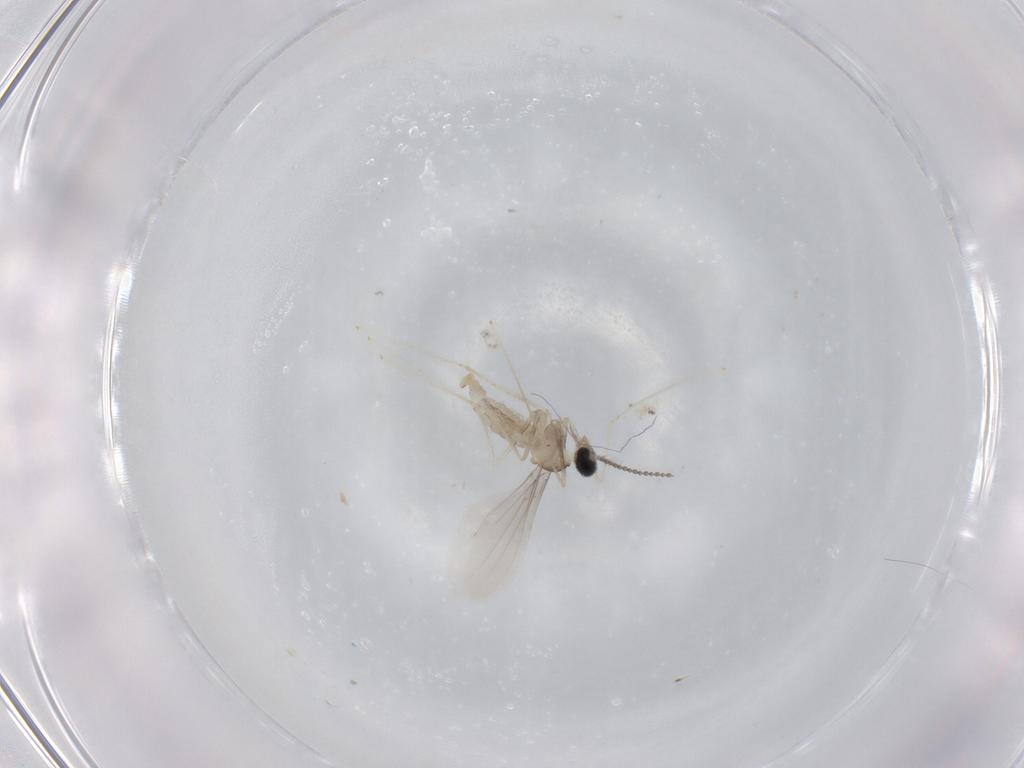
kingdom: Animalia
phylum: Arthropoda
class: Insecta
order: Diptera
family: Cecidomyiidae
